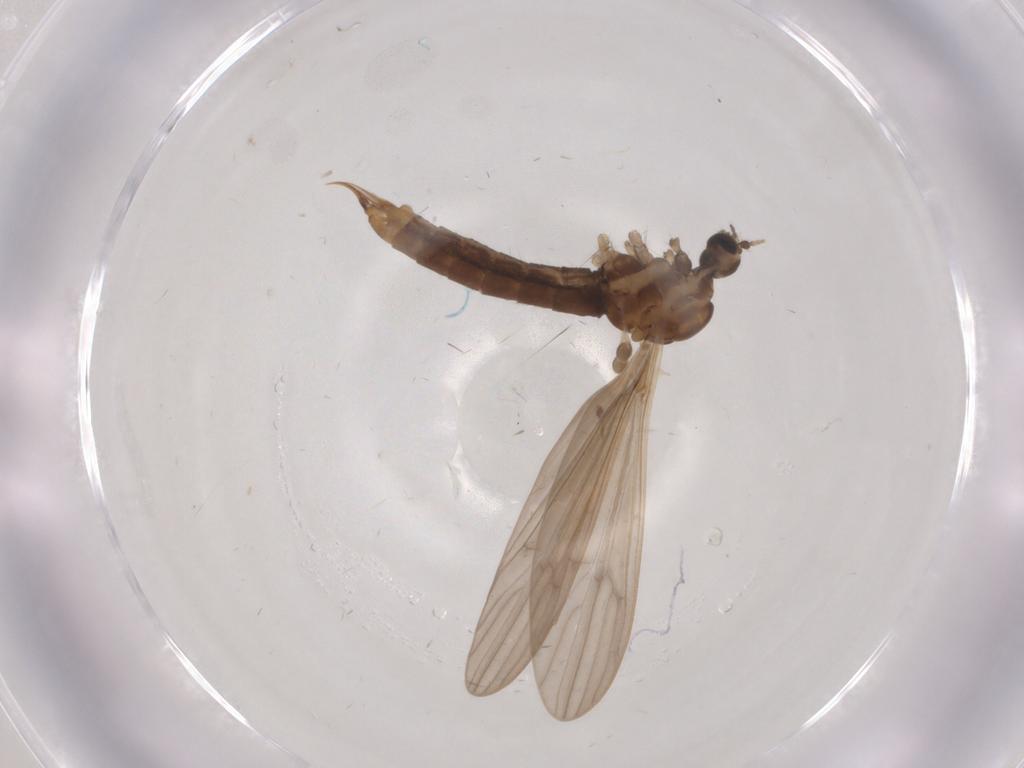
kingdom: Animalia
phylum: Arthropoda
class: Insecta
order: Diptera
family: Limoniidae
